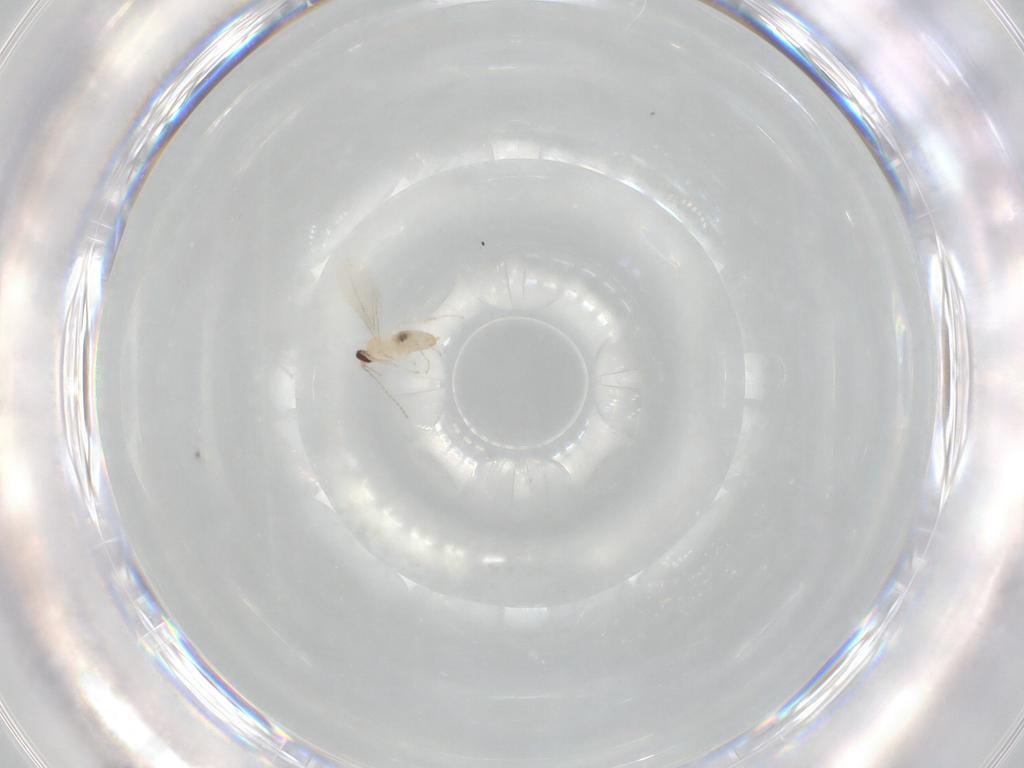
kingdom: Animalia
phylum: Arthropoda
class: Insecta
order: Diptera
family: Cecidomyiidae
